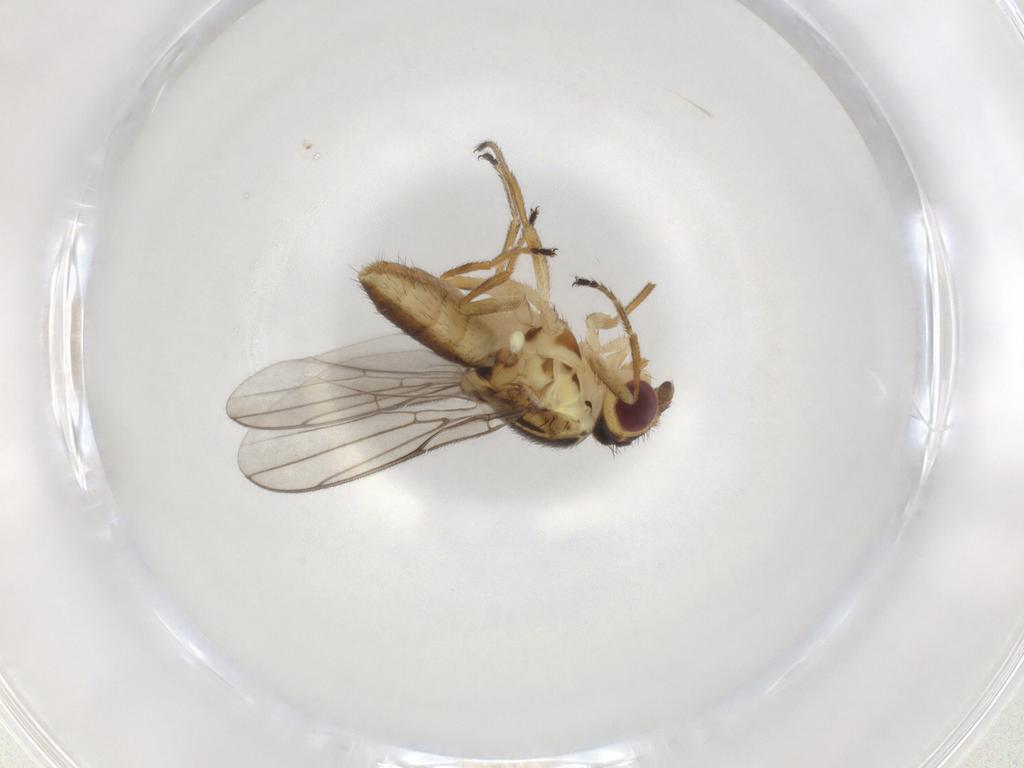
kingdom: Animalia
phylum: Arthropoda
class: Insecta
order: Diptera
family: Chloropidae
